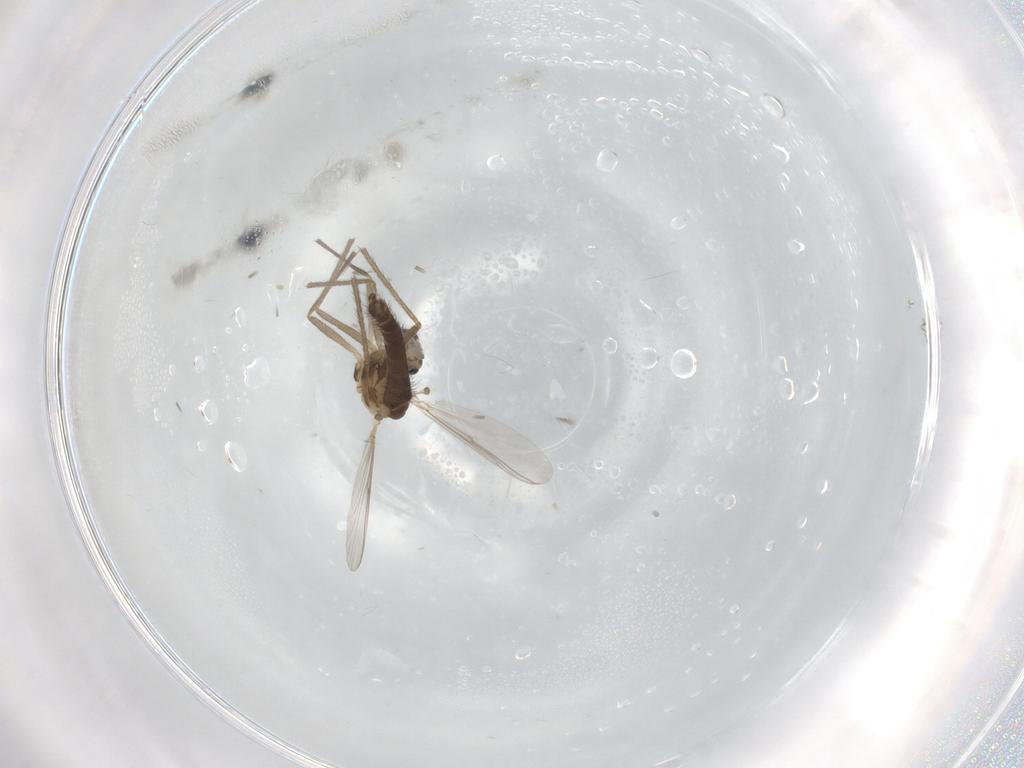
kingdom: Animalia
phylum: Arthropoda
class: Insecta
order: Diptera
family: Chironomidae
